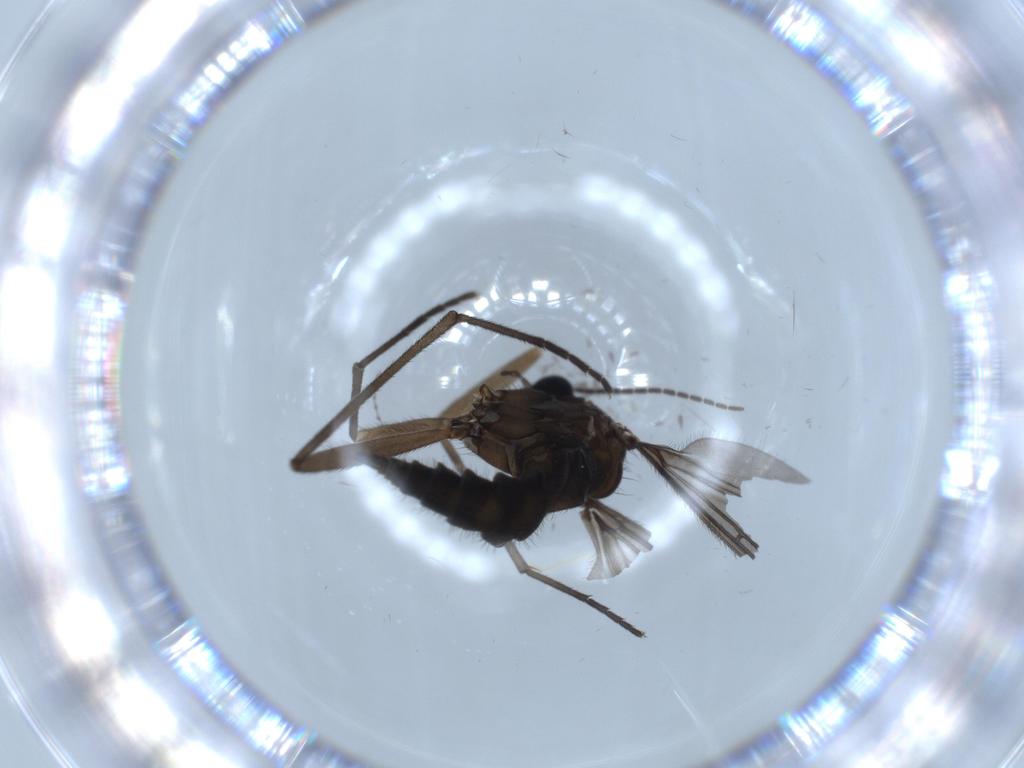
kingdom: Animalia
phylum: Arthropoda
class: Insecta
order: Diptera
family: Sciaridae
